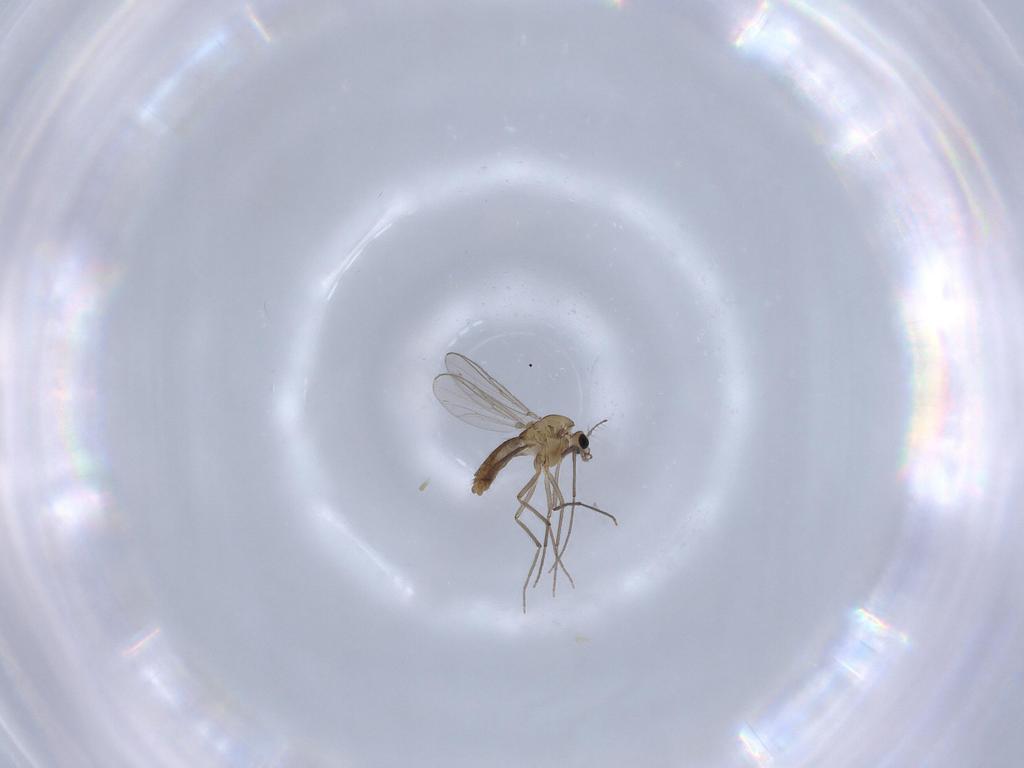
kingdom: Animalia
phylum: Arthropoda
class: Insecta
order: Diptera
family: Chironomidae
